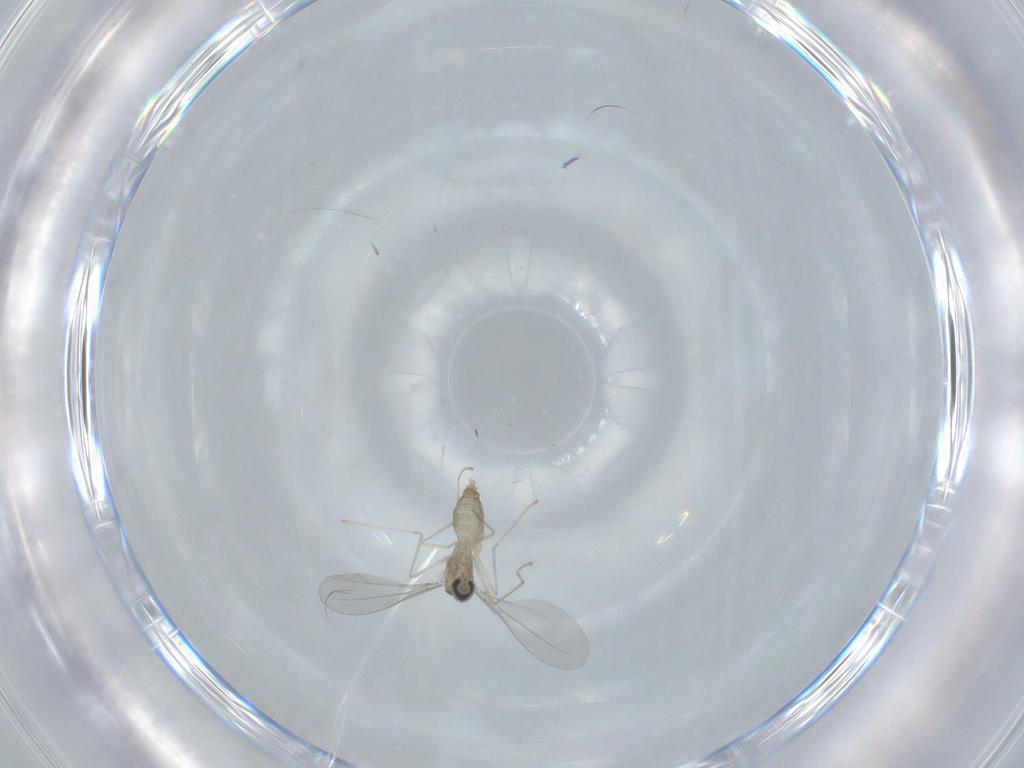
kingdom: Animalia
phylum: Arthropoda
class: Insecta
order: Diptera
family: Cecidomyiidae
